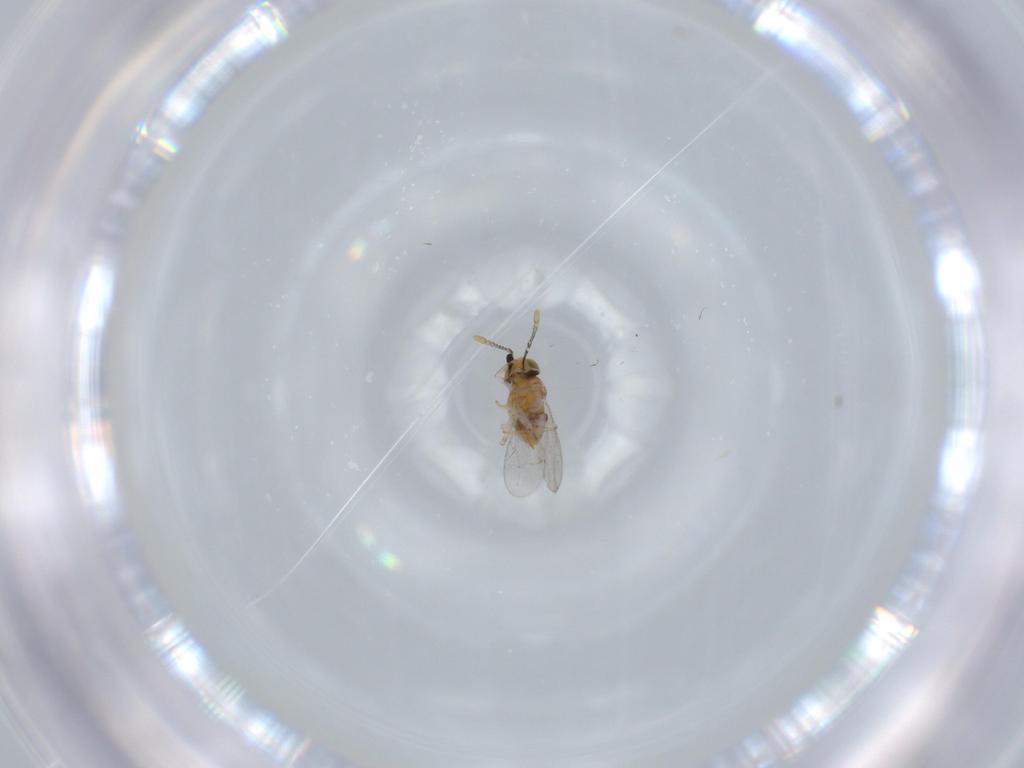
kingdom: Animalia
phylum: Arthropoda
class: Insecta
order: Hymenoptera
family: Encyrtidae
